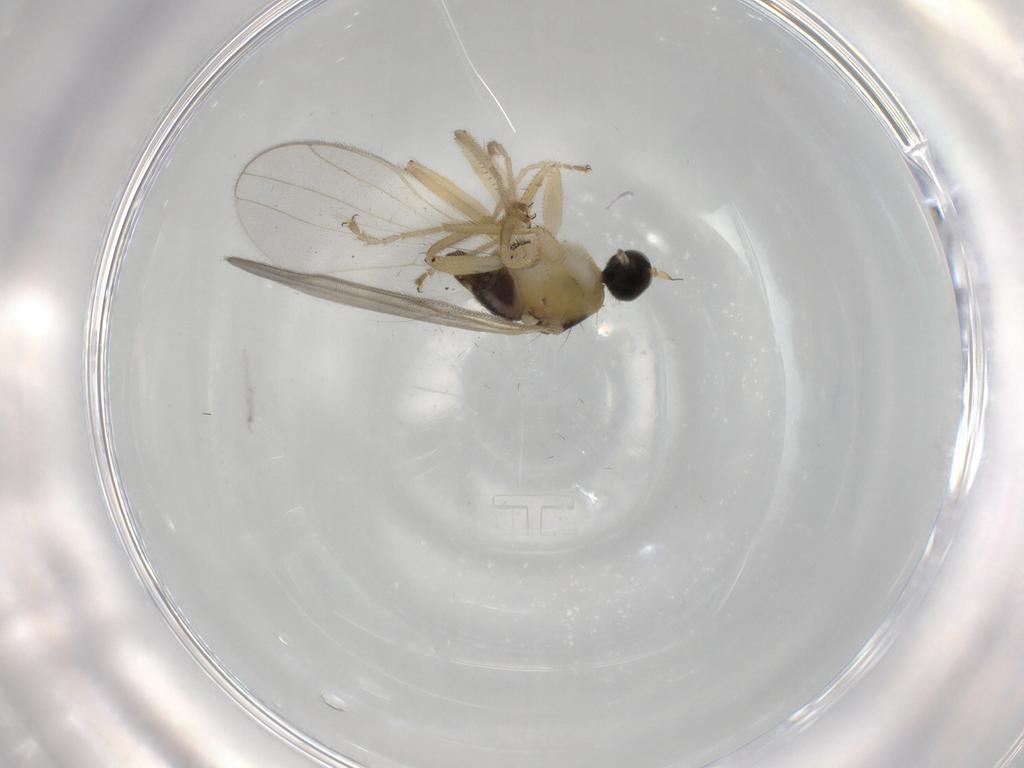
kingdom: Animalia
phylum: Arthropoda
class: Insecta
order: Diptera
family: Hybotidae
